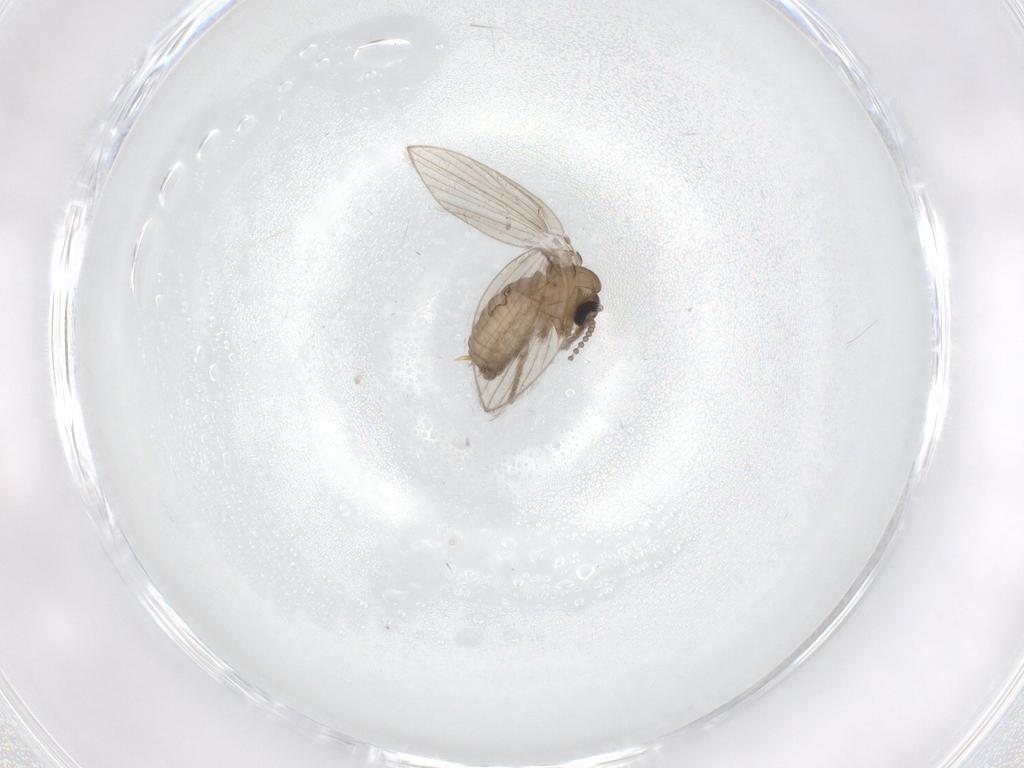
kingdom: Animalia
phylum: Arthropoda
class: Insecta
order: Diptera
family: Psychodidae
